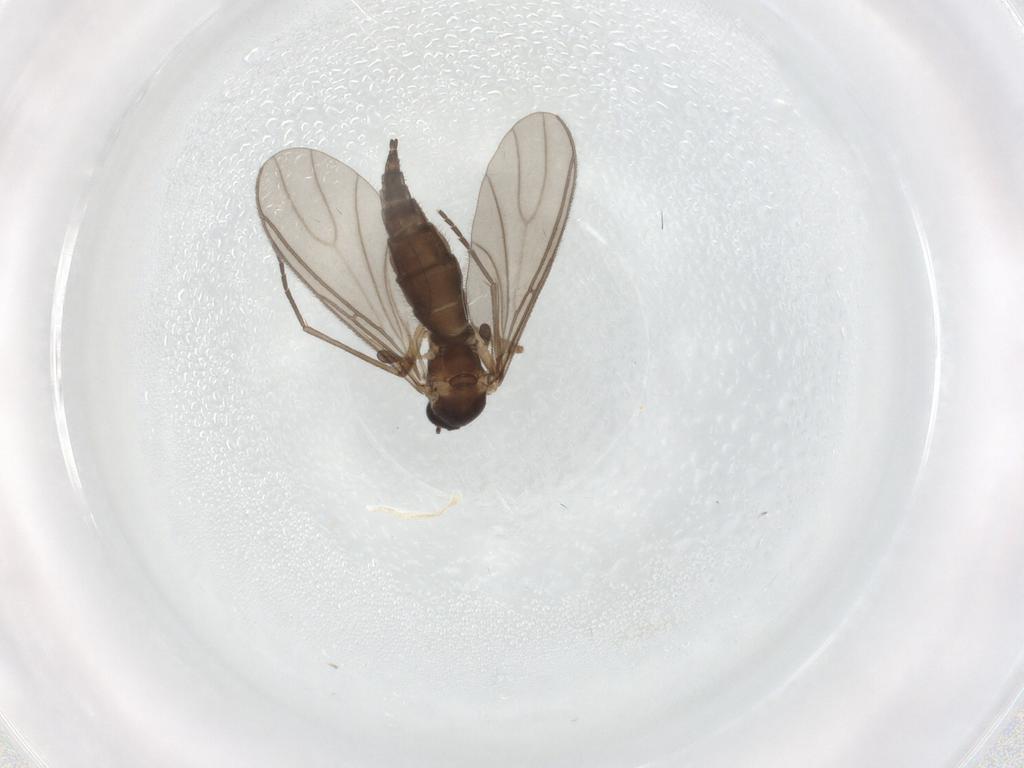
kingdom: Animalia
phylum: Arthropoda
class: Insecta
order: Diptera
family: Sciaridae
